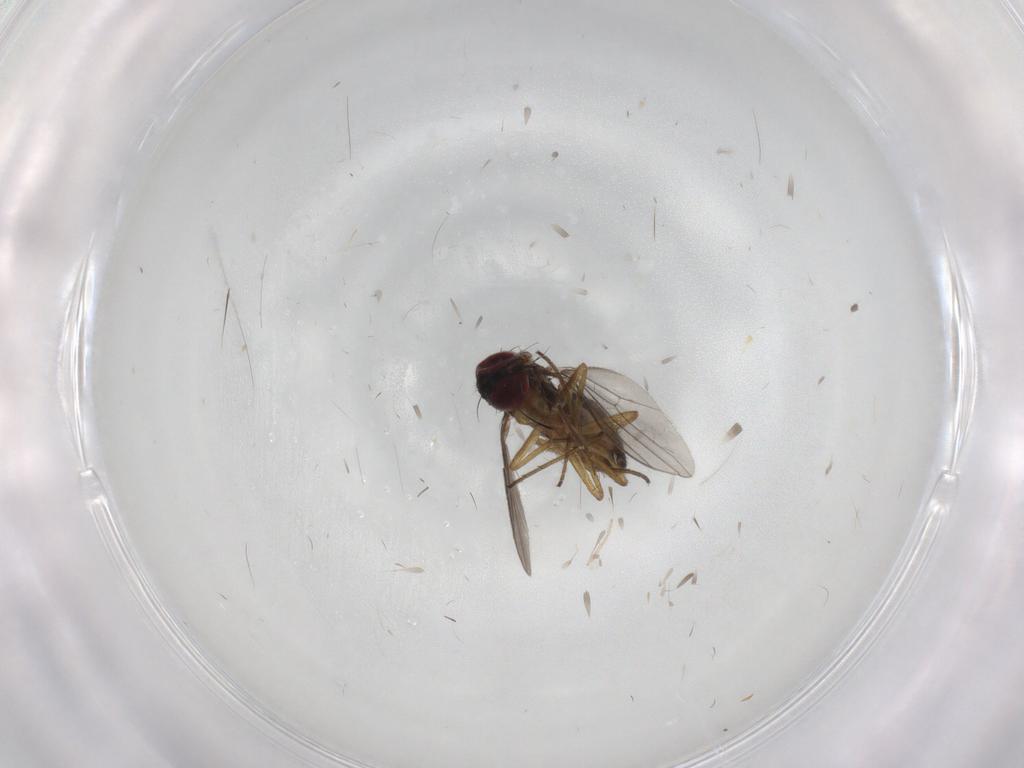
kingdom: Animalia
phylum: Arthropoda
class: Insecta
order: Diptera
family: Dolichopodidae
